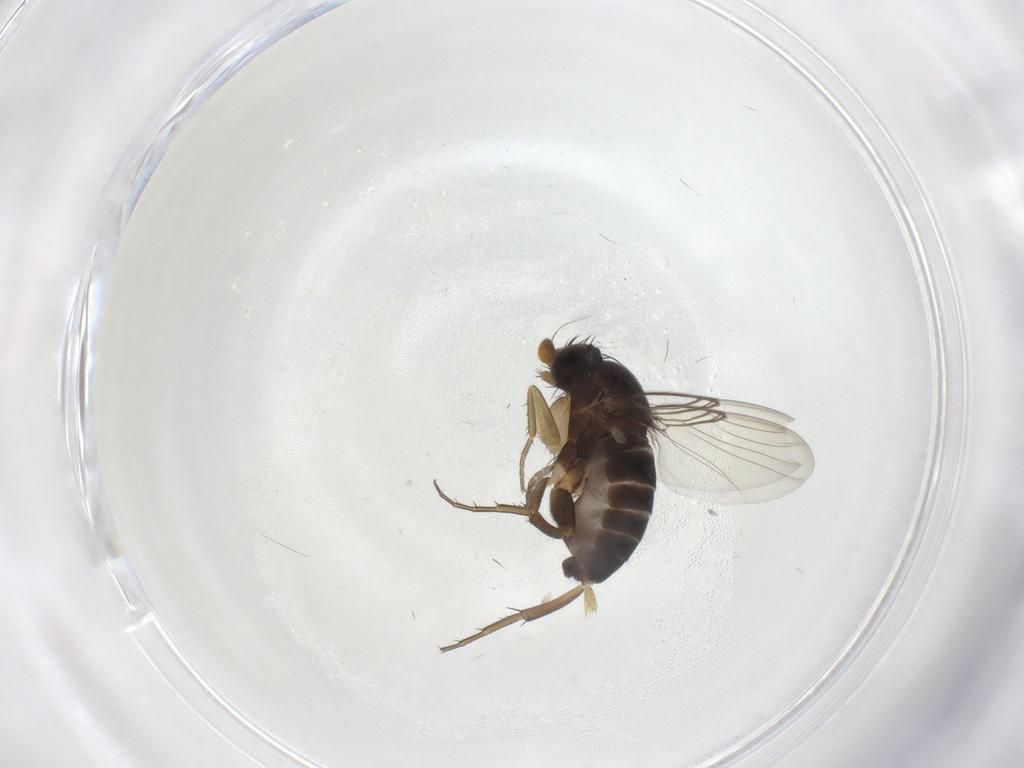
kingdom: Animalia
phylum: Arthropoda
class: Insecta
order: Diptera
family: Phoridae
